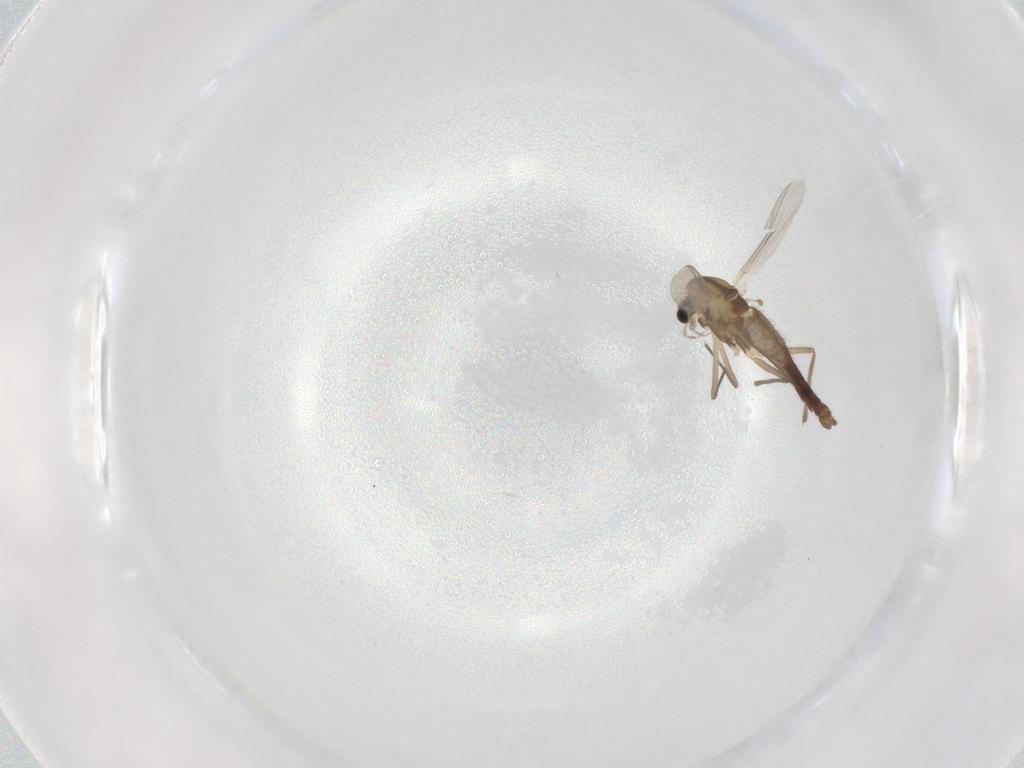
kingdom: Animalia
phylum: Arthropoda
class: Insecta
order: Diptera
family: Chironomidae
